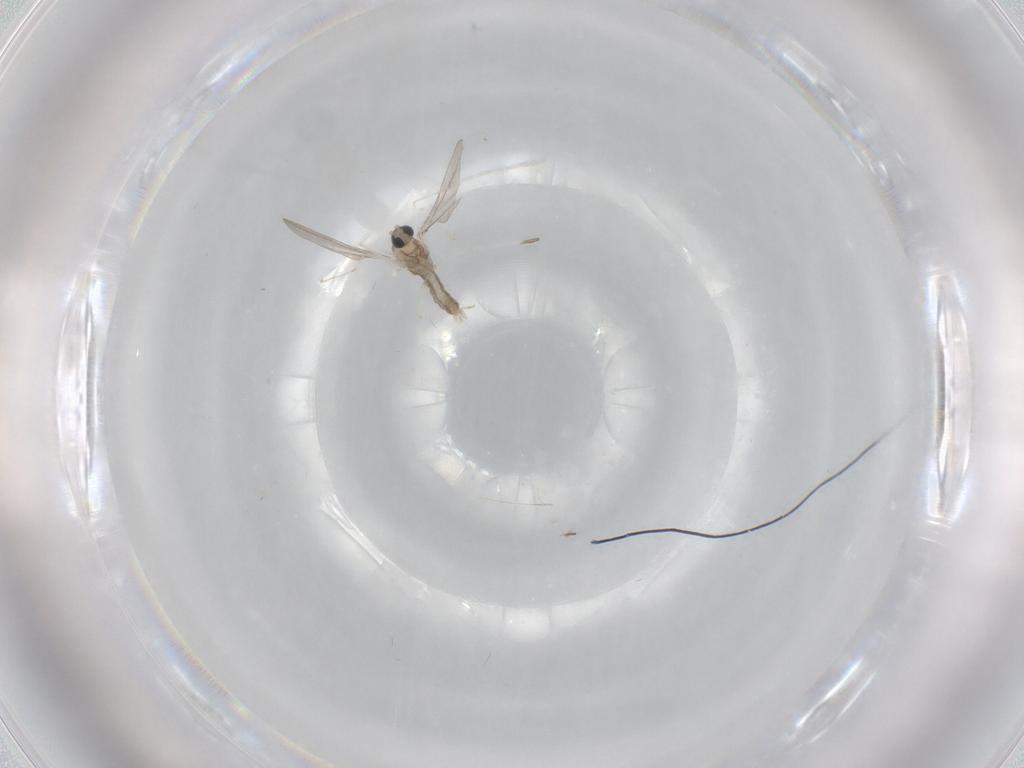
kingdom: Animalia
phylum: Arthropoda
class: Insecta
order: Diptera
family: Cecidomyiidae
